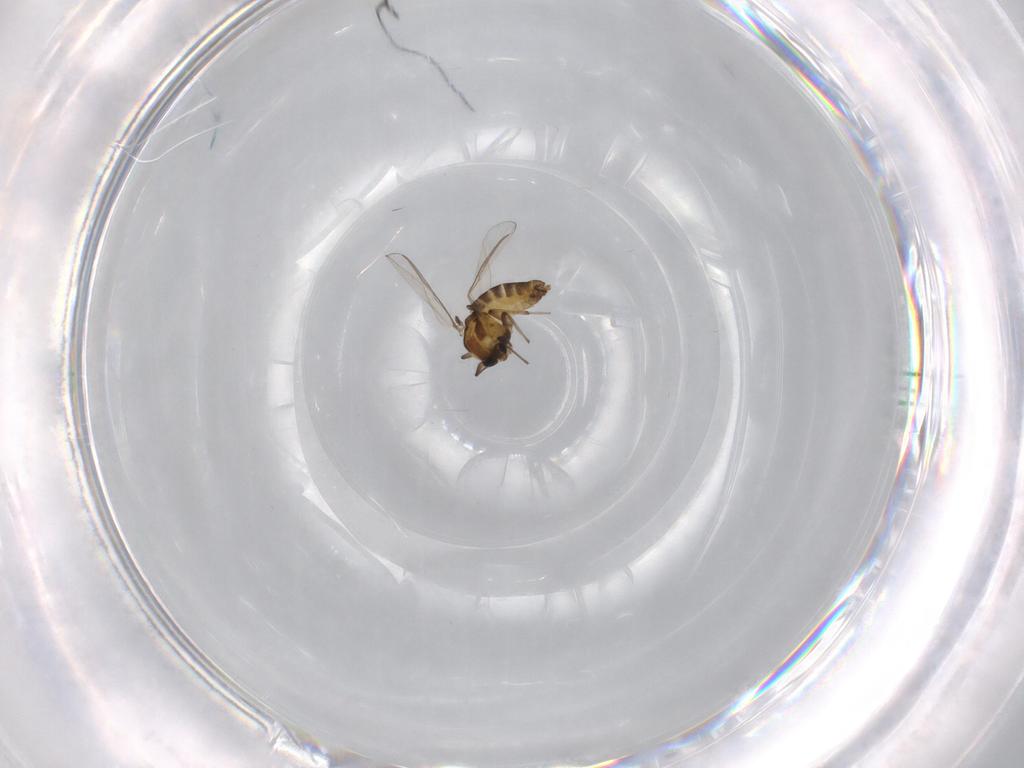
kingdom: Animalia
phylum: Arthropoda
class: Insecta
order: Diptera
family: Chironomidae
